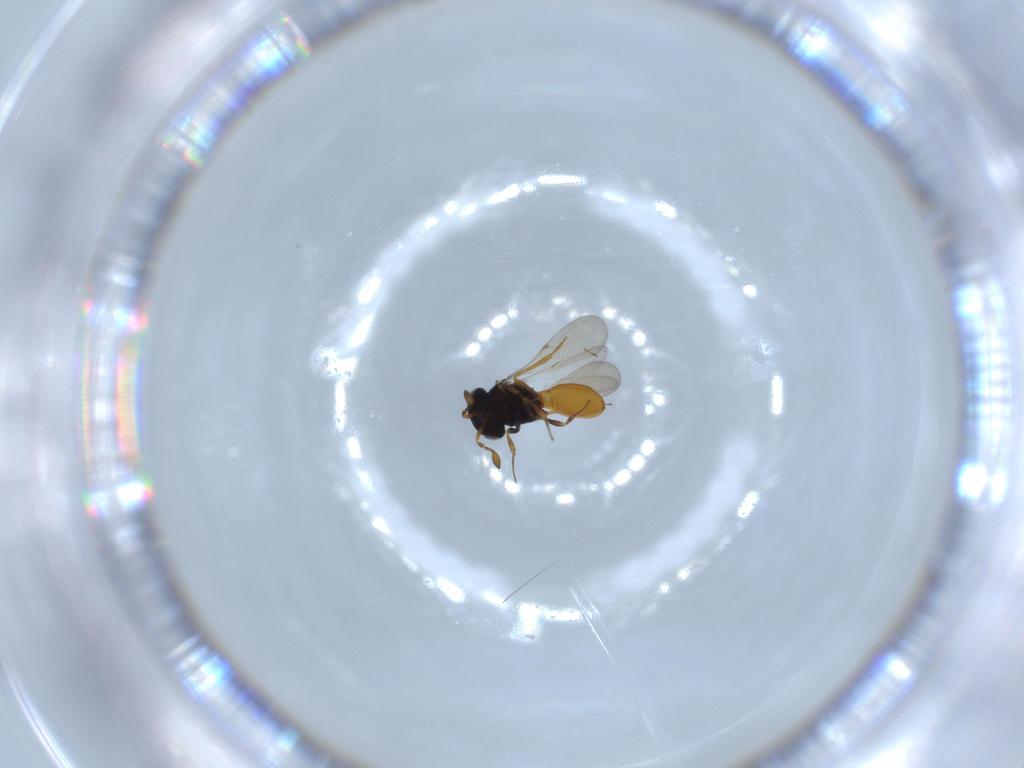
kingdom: Animalia
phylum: Arthropoda
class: Insecta
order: Hymenoptera
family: Scelionidae
